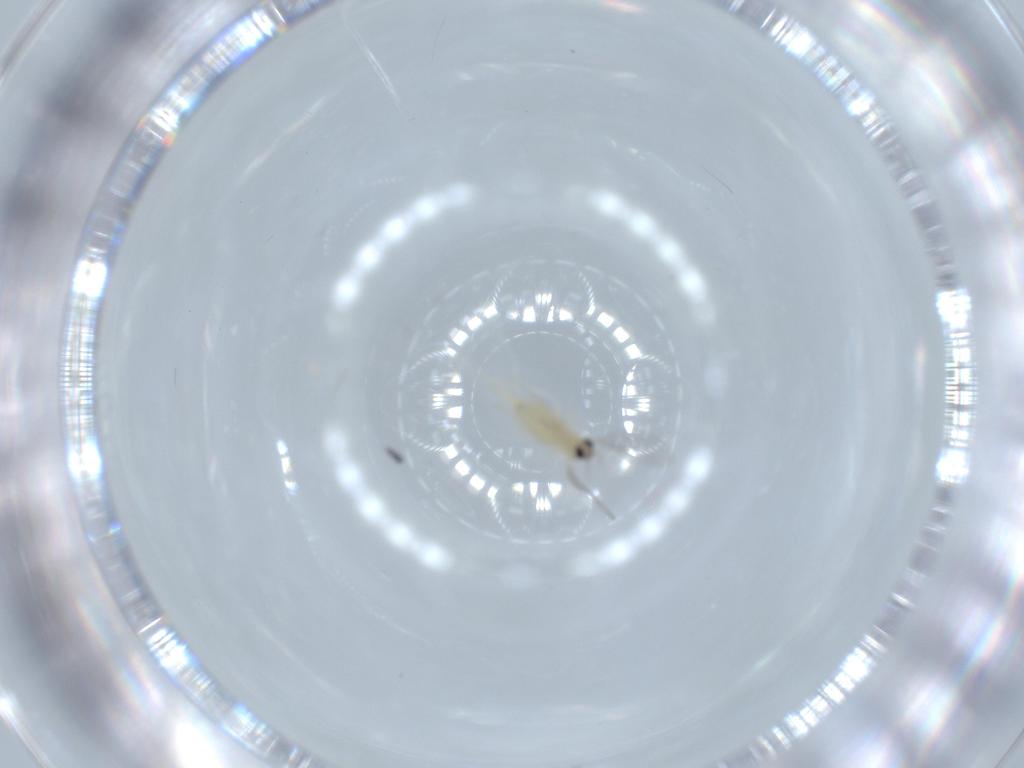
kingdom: Animalia
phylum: Arthropoda
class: Insecta
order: Diptera
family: Cecidomyiidae
